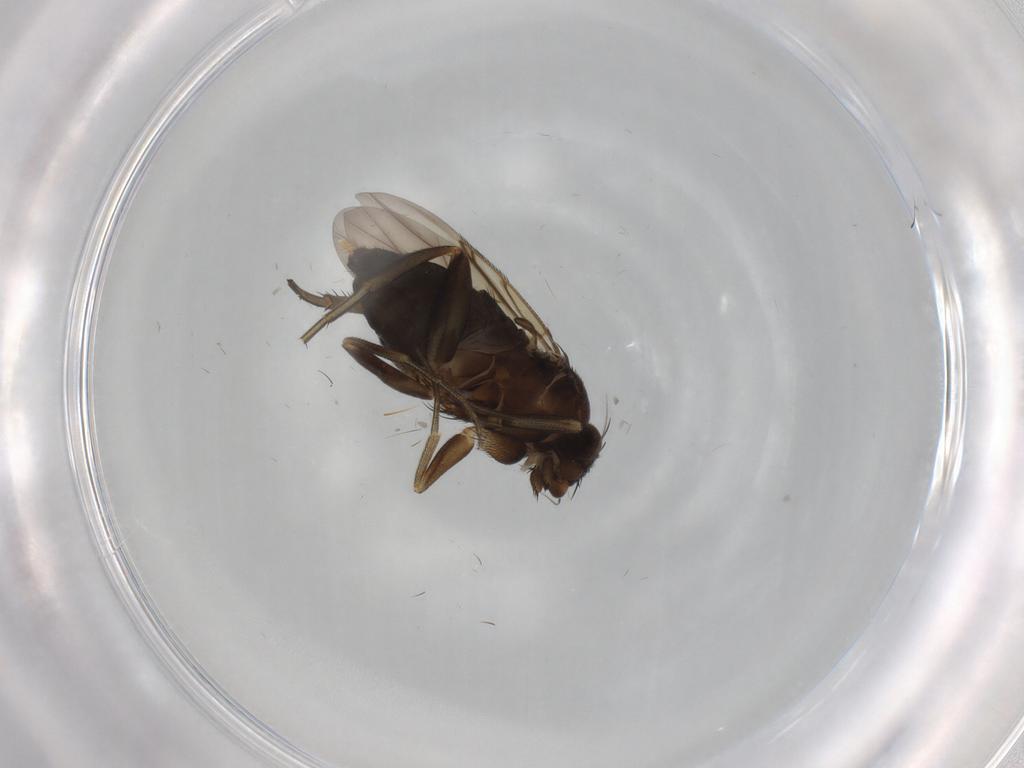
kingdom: Animalia
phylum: Arthropoda
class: Insecta
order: Diptera
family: Phoridae
